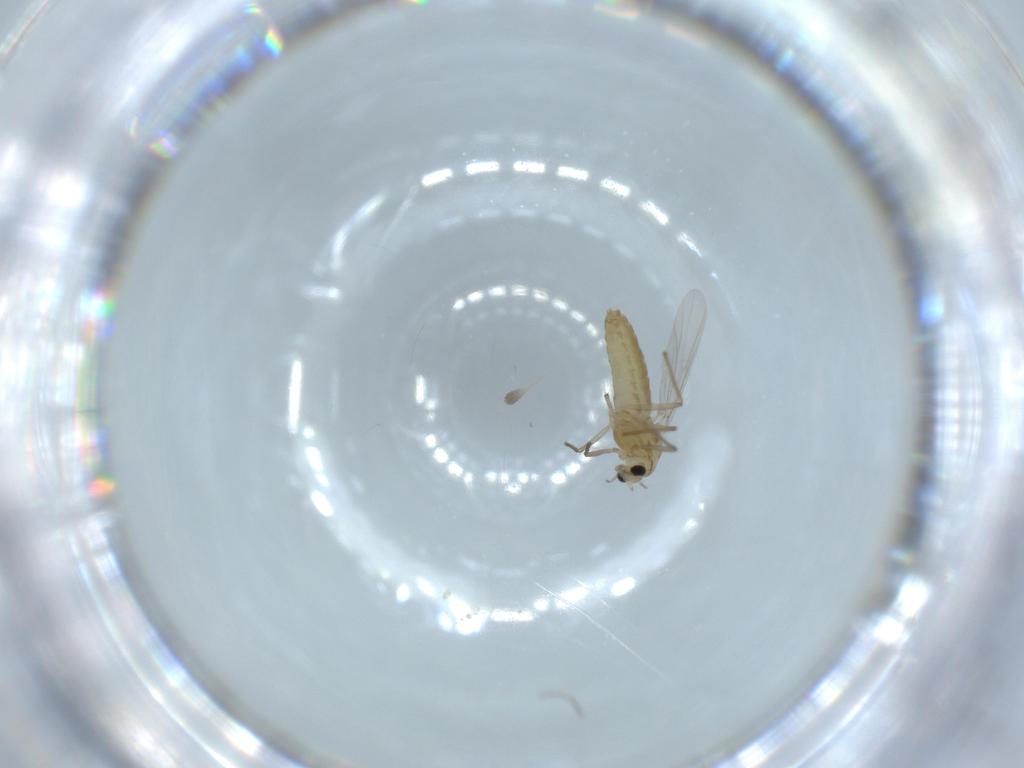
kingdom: Animalia
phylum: Arthropoda
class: Insecta
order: Diptera
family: Chironomidae
